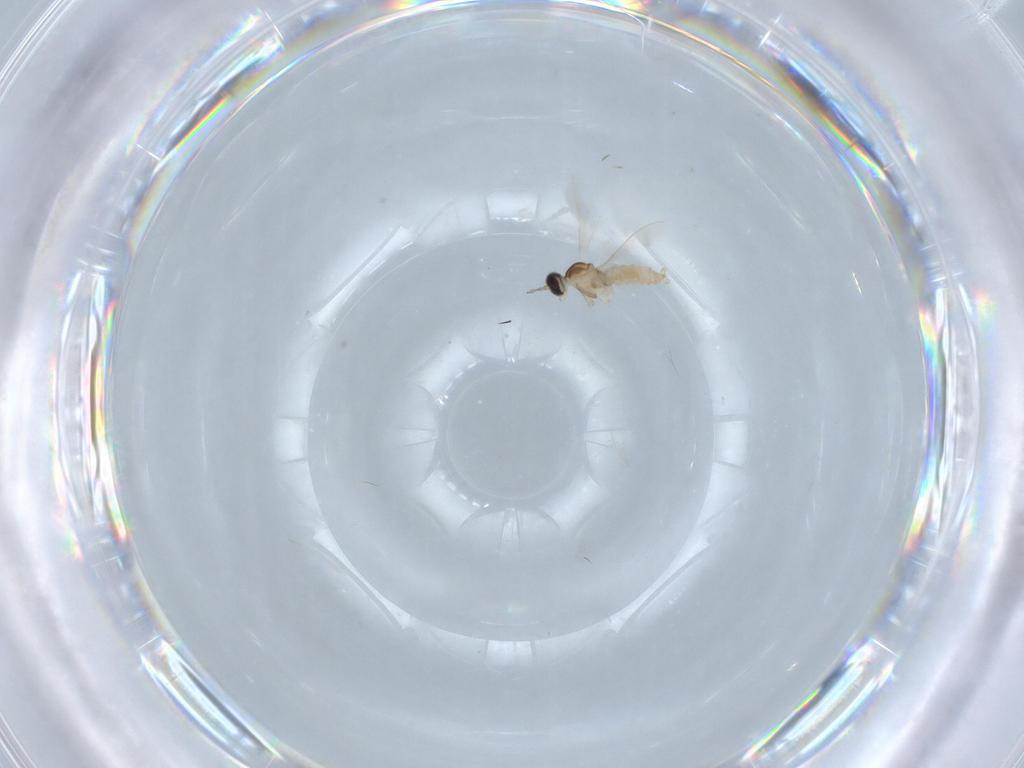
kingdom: Animalia
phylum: Arthropoda
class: Insecta
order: Diptera
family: Cecidomyiidae
